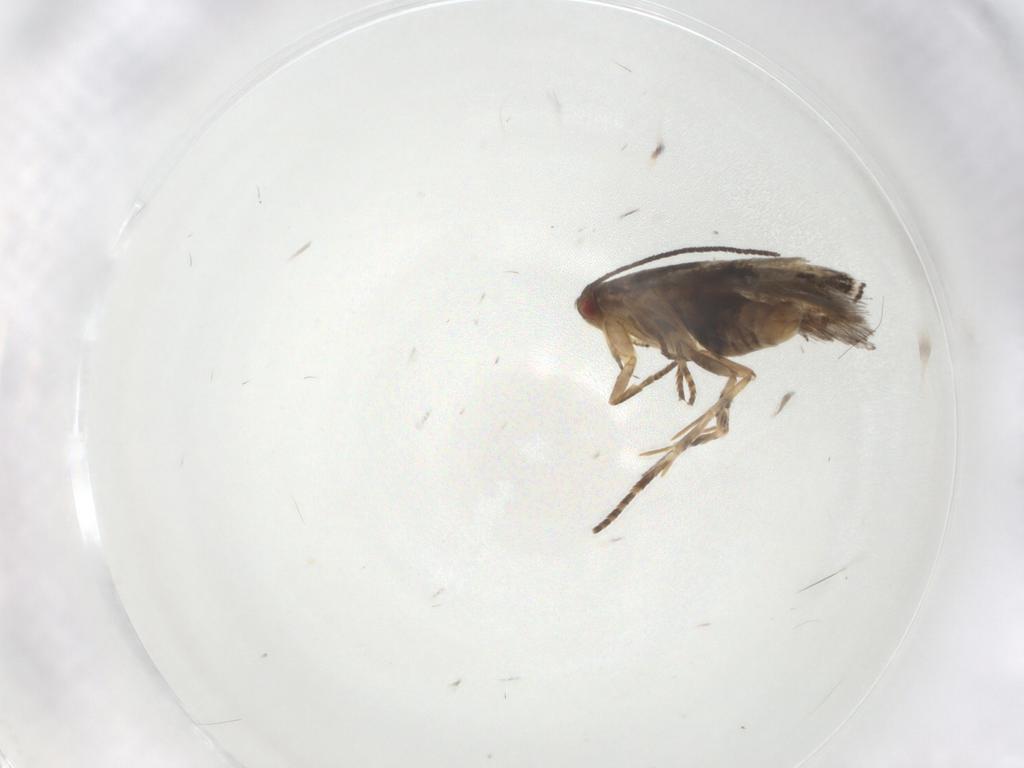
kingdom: Animalia
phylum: Arthropoda
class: Insecta
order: Lepidoptera
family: Momphidae
